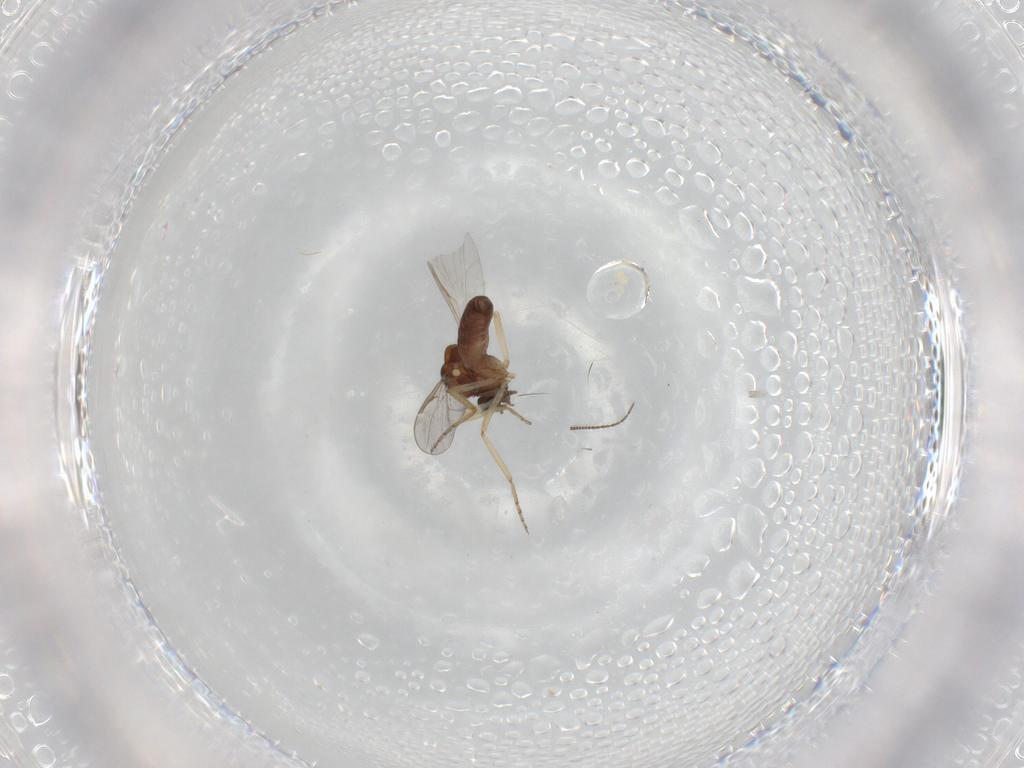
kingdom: Animalia
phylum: Arthropoda
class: Insecta
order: Diptera
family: Ceratopogonidae
